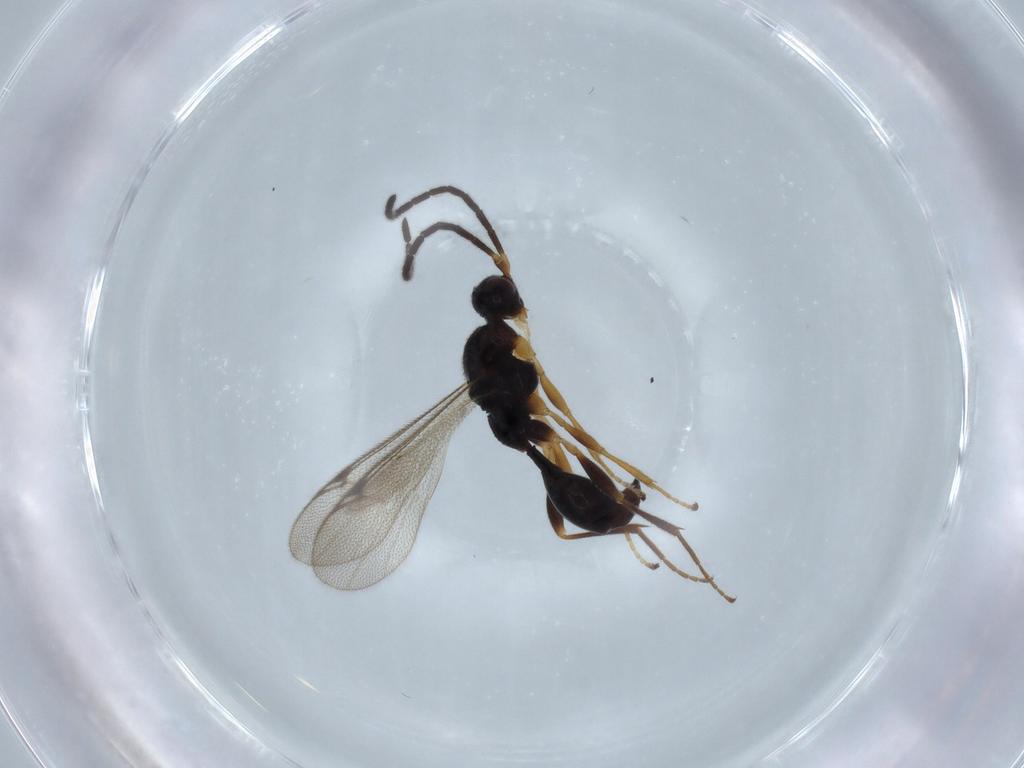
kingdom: Animalia
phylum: Arthropoda
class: Insecta
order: Hymenoptera
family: Proctotrupidae
